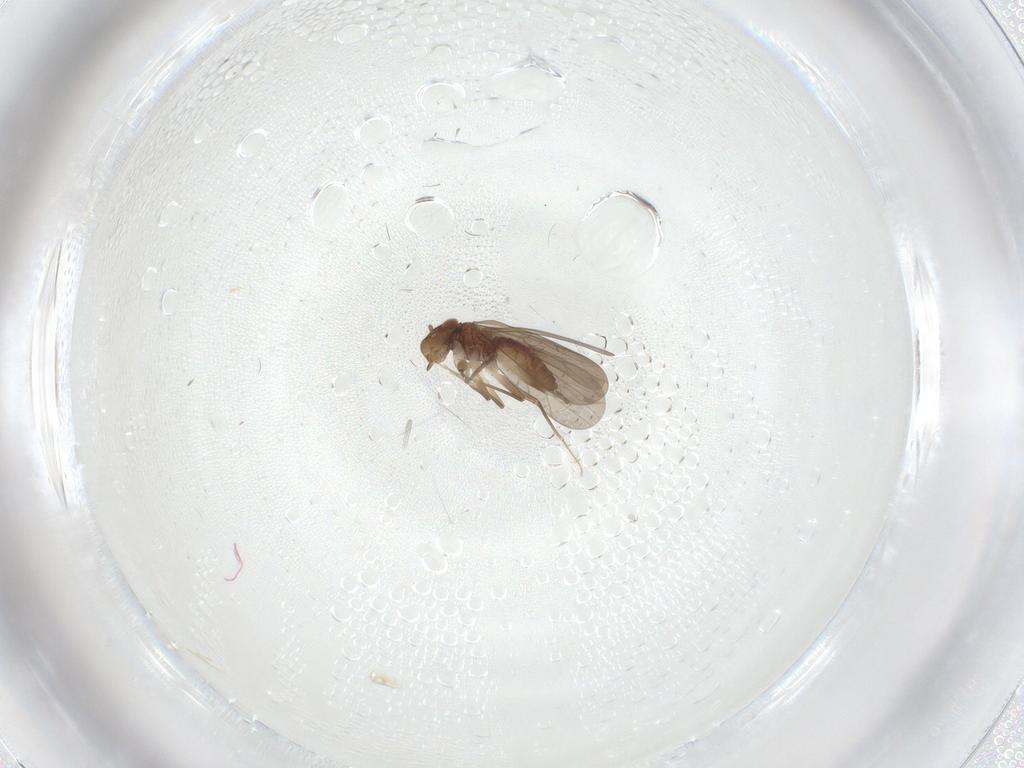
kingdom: Animalia
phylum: Arthropoda
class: Insecta
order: Psocodea
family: Lepidopsocidae
